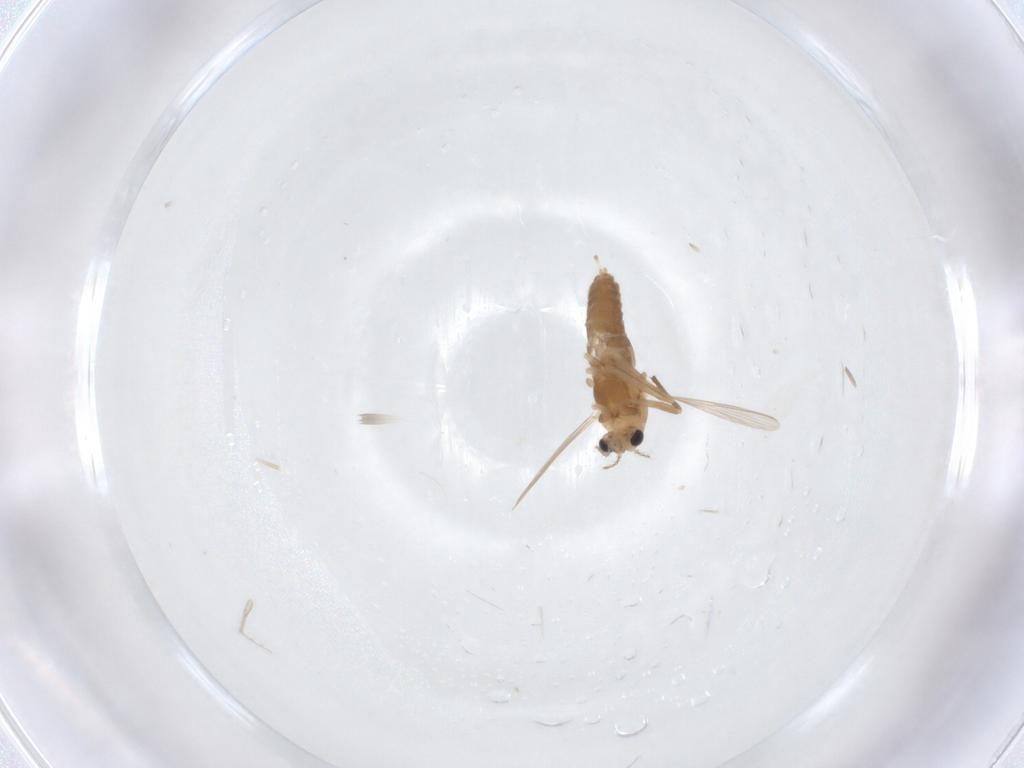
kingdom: Animalia
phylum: Arthropoda
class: Insecta
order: Diptera
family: Chironomidae
